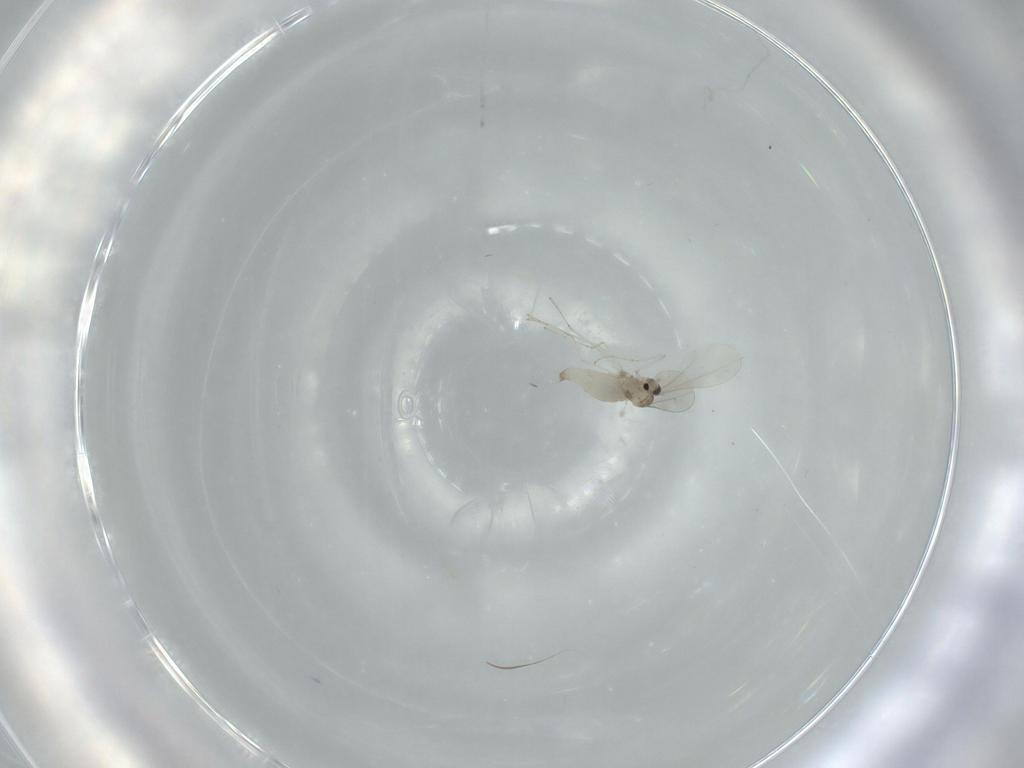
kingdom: Animalia
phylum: Arthropoda
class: Insecta
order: Diptera
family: Cecidomyiidae
